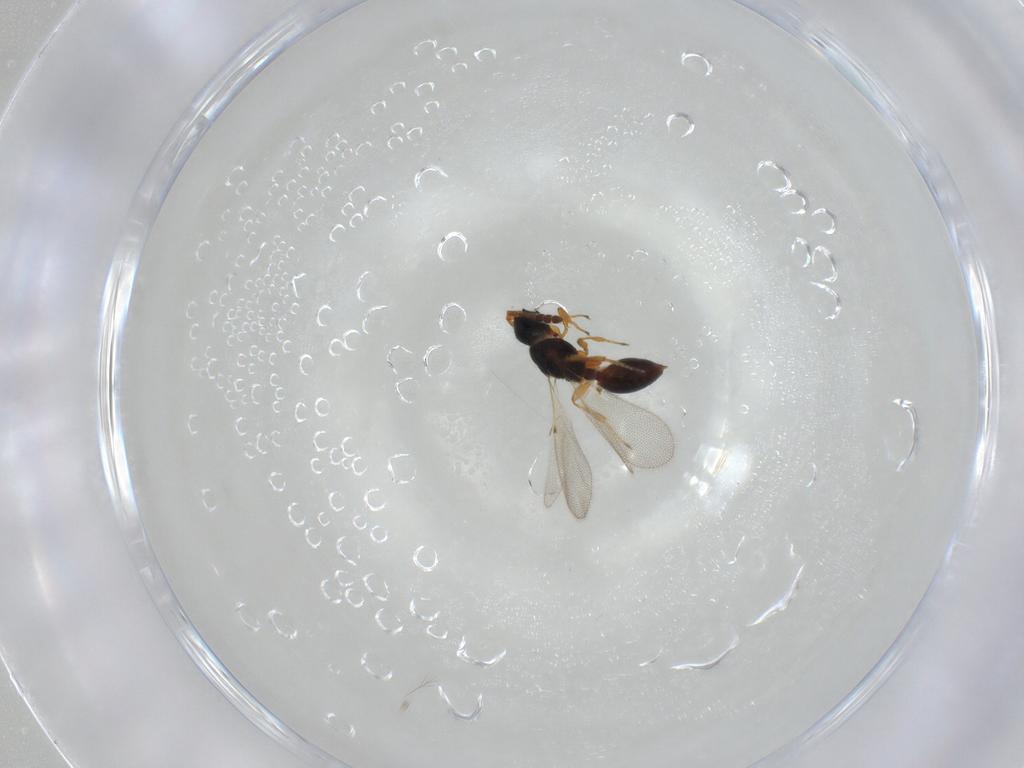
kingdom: Animalia
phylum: Arthropoda
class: Insecta
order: Hymenoptera
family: Diapriidae
